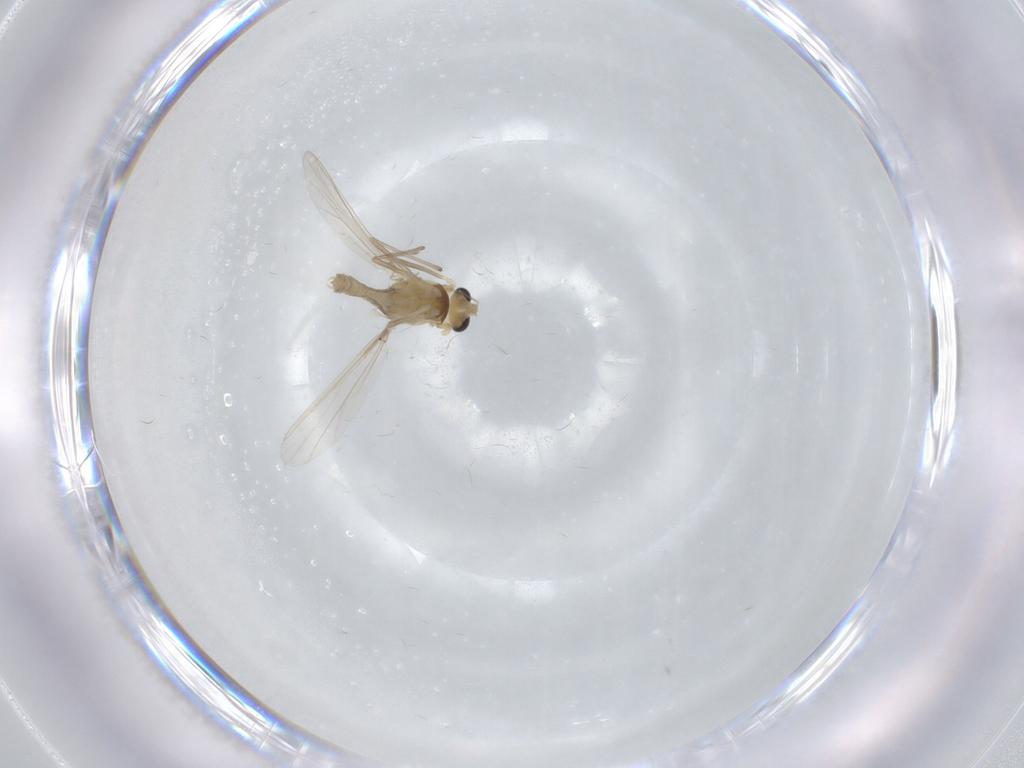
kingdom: Animalia
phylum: Arthropoda
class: Insecta
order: Diptera
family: Chironomidae
